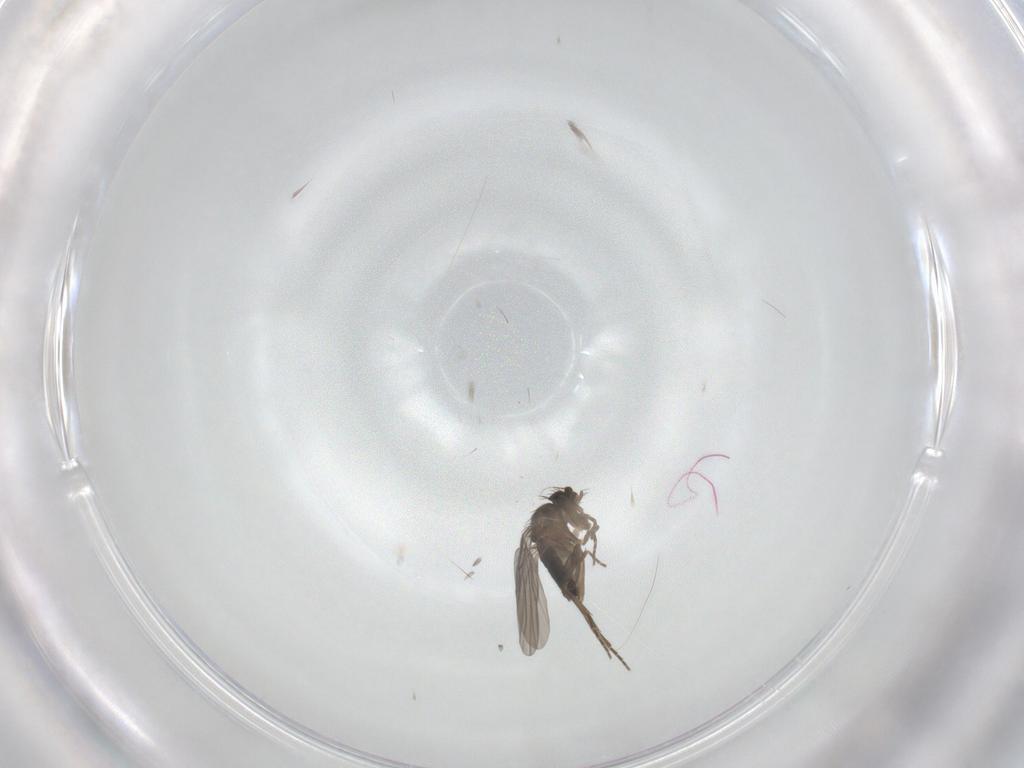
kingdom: Animalia
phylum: Arthropoda
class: Insecta
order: Diptera
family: Phoridae
